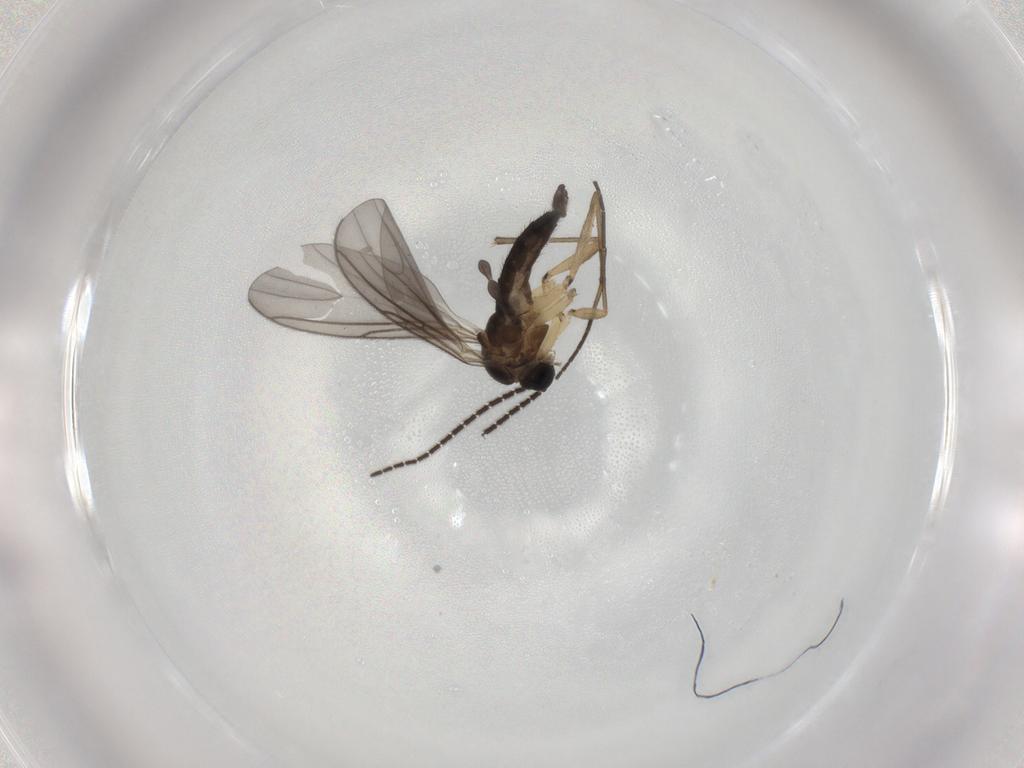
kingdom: Animalia
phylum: Arthropoda
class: Insecta
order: Diptera
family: Sciaridae
